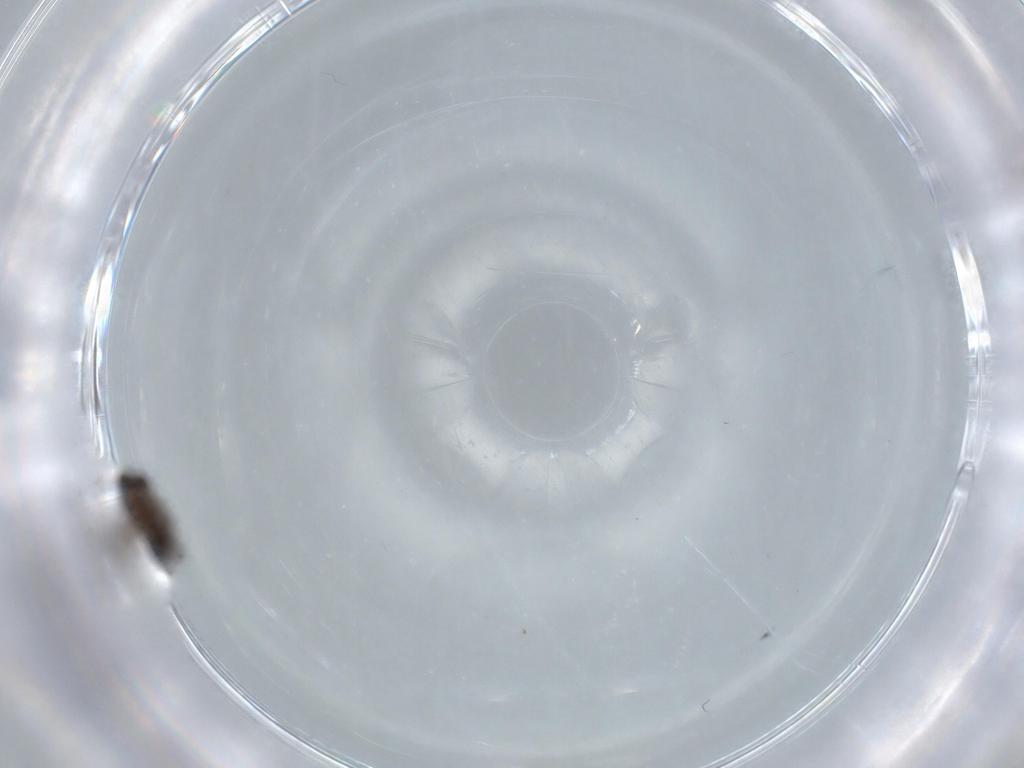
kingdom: Animalia
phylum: Arthropoda
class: Insecta
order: Diptera
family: Psychodidae
